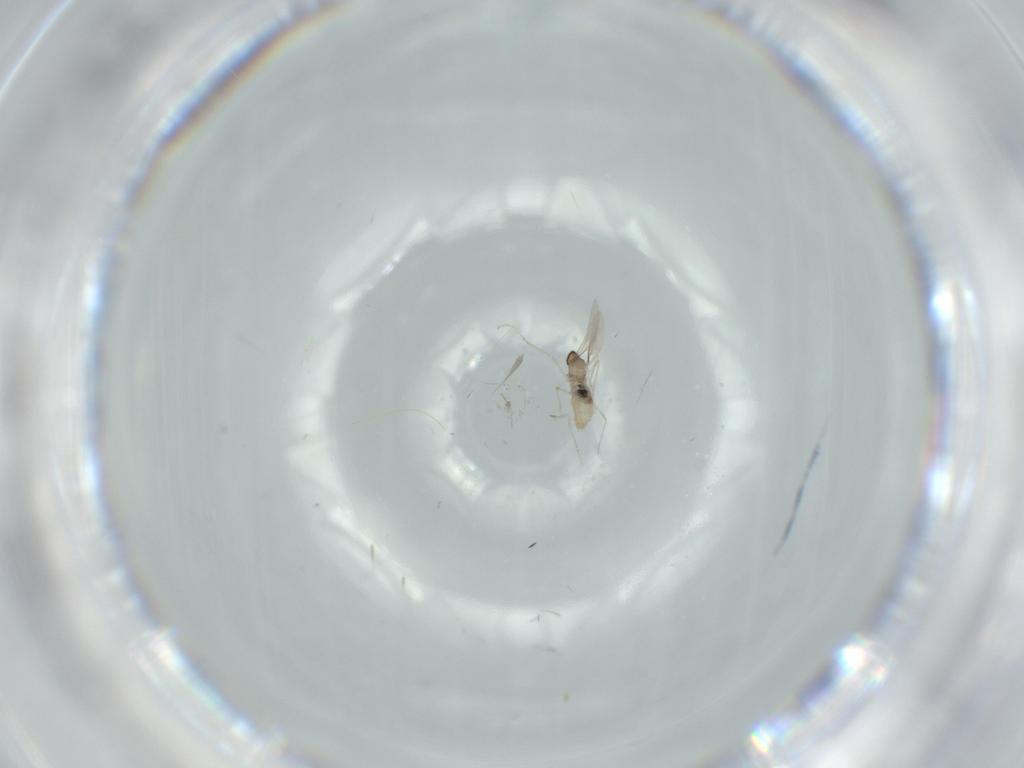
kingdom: Animalia
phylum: Arthropoda
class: Insecta
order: Diptera
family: Cecidomyiidae
